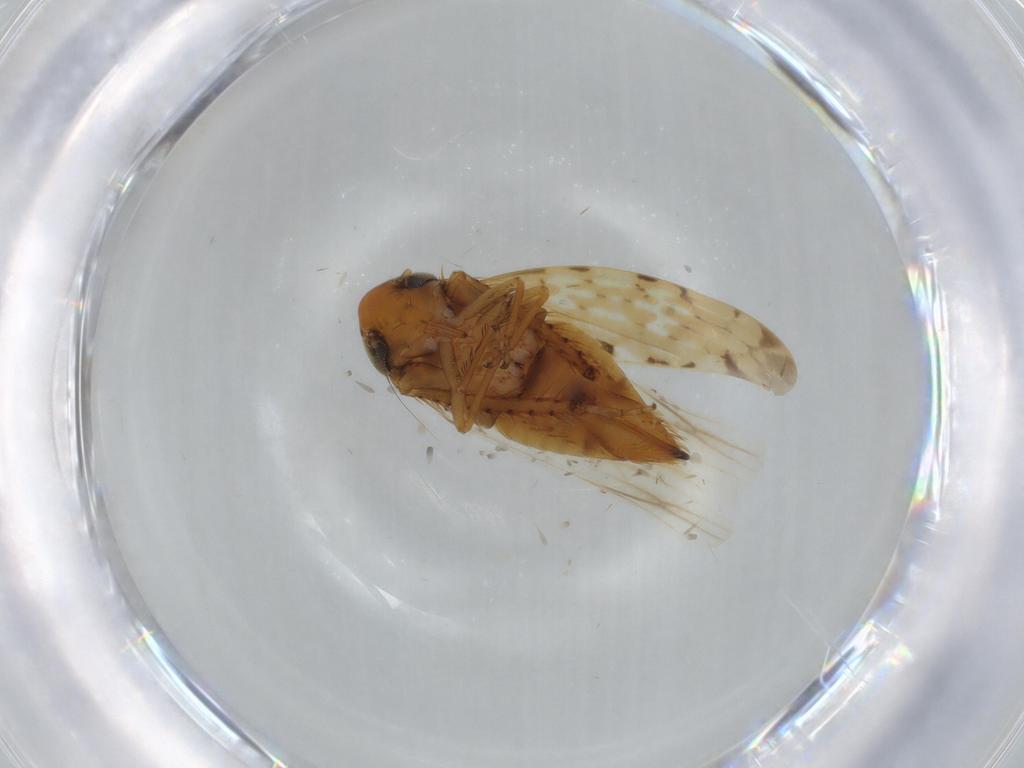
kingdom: Animalia
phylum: Arthropoda
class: Insecta
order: Hemiptera
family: Cicadellidae
